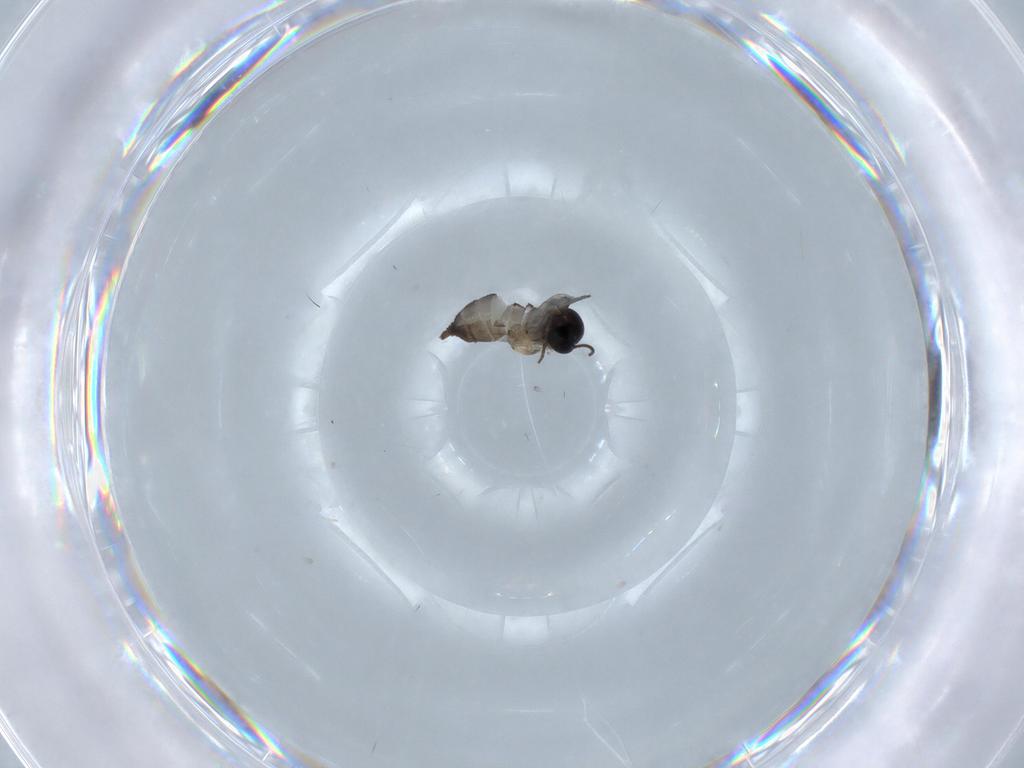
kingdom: Animalia
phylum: Arthropoda
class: Insecta
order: Diptera
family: Sciaridae
